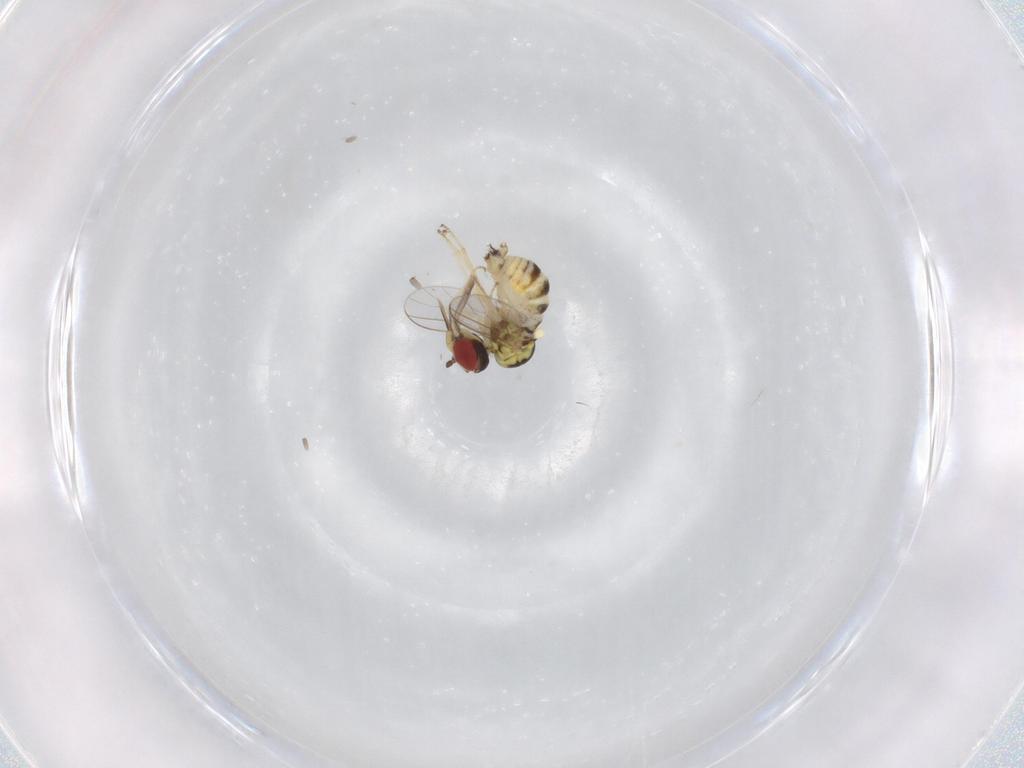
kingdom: Animalia
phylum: Arthropoda
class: Insecta
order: Diptera
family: Bombyliidae
